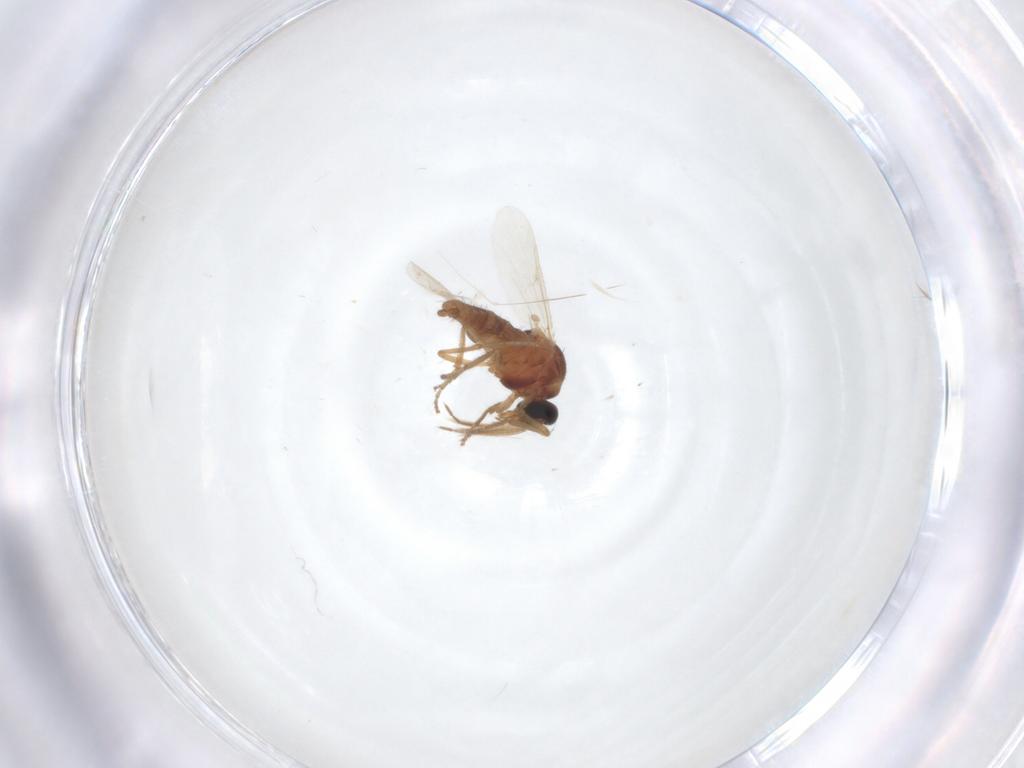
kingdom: Animalia
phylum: Arthropoda
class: Insecta
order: Diptera
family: Ceratopogonidae
